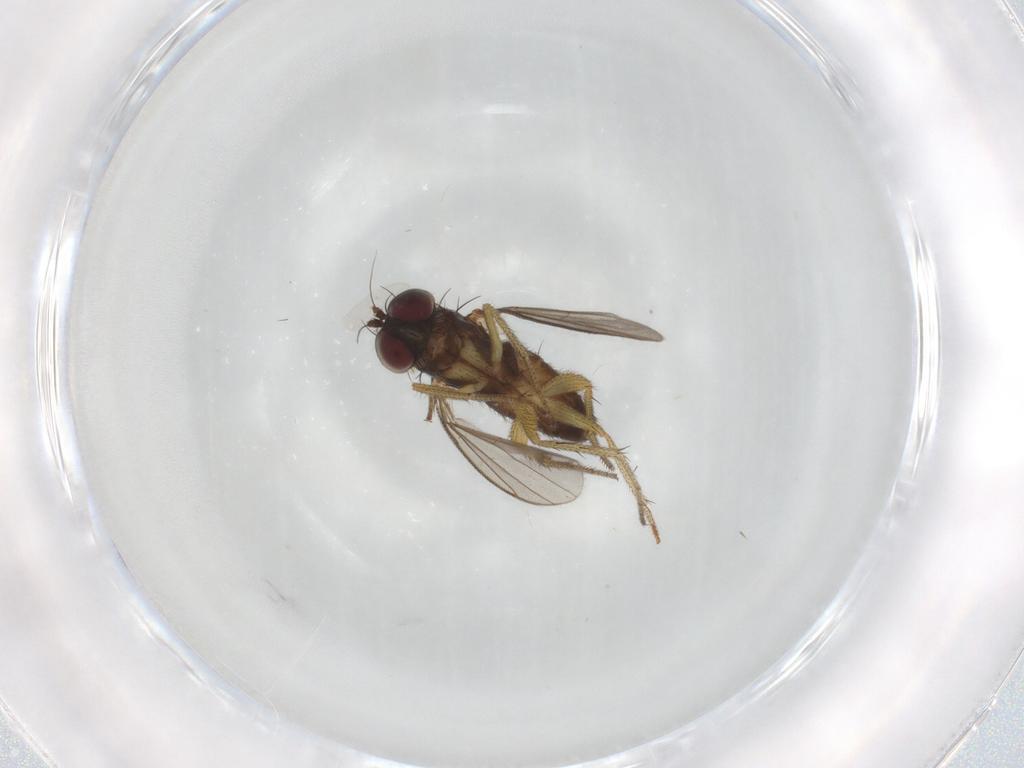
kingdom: Animalia
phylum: Arthropoda
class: Insecta
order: Diptera
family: Dolichopodidae
